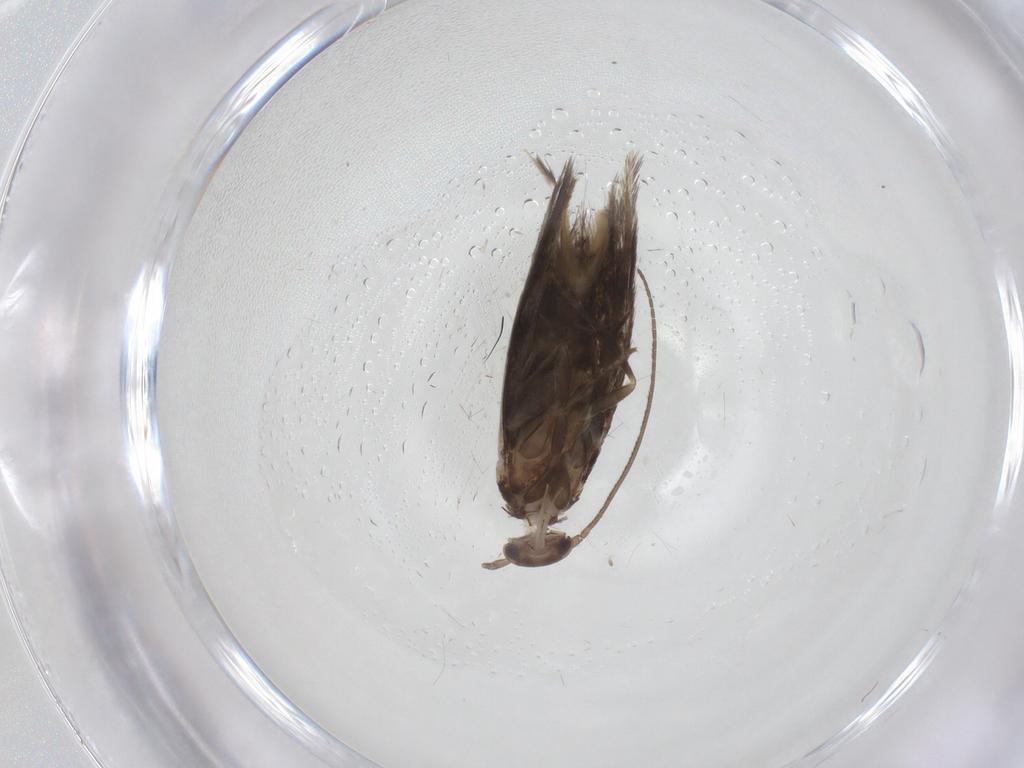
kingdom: Animalia
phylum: Arthropoda
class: Insecta
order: Lepidoptera
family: Elachistidae
